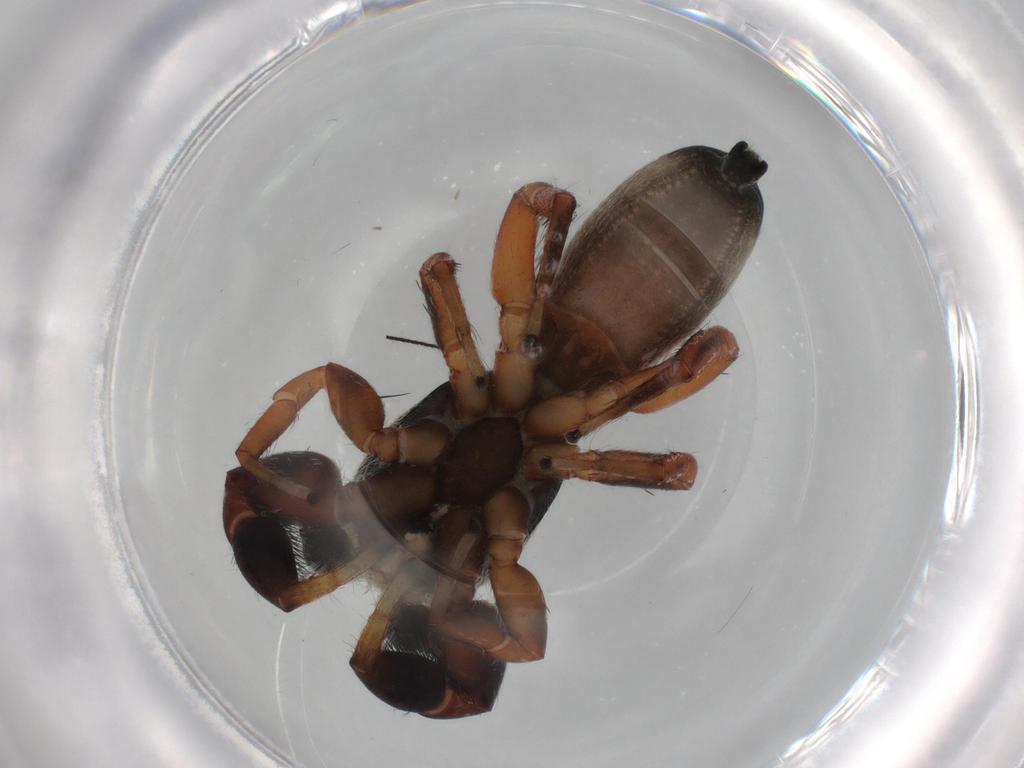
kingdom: Animalia
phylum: Arthropoda
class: Arachnida
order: Araneae
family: Salticidae
